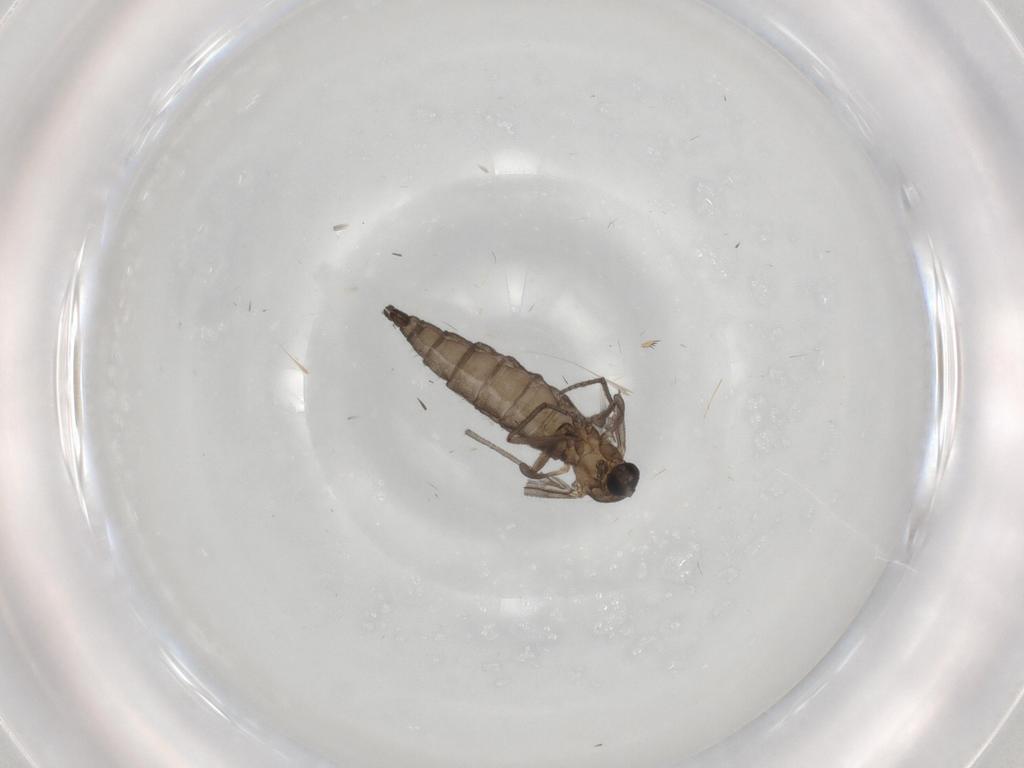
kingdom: Animalia
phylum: Arthropoda
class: Insecta
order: Diptera
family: Sciaridae
